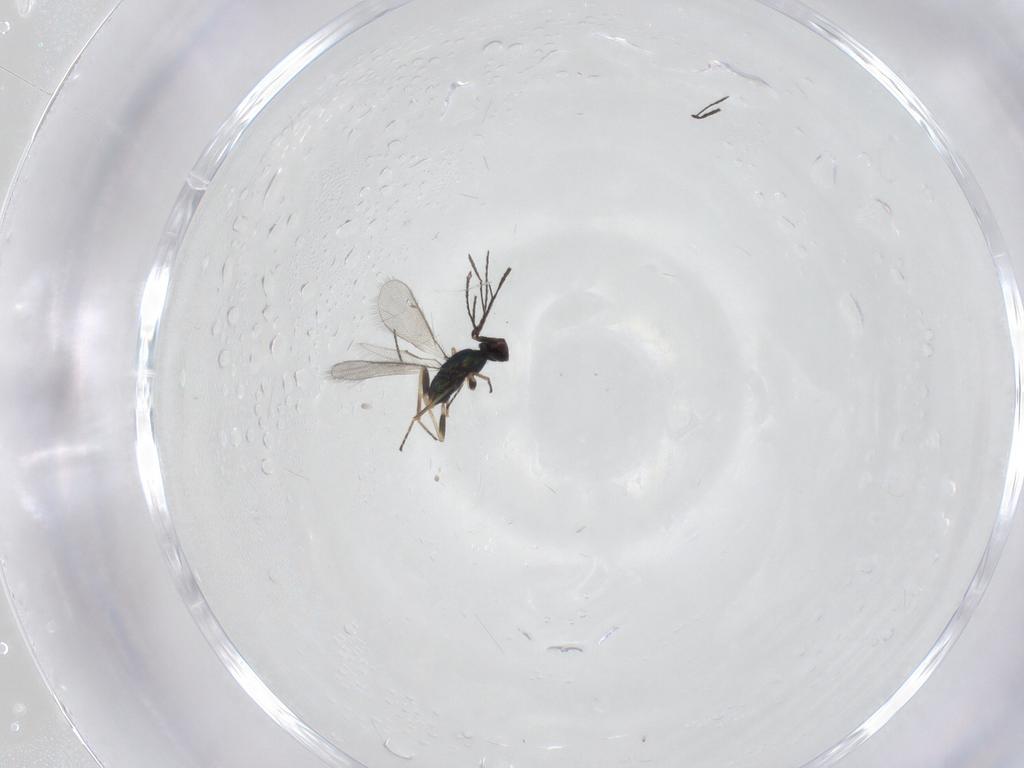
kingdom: Animalia
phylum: Arthropoda
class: Insecta
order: Hymenoptera
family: Eulophidae
